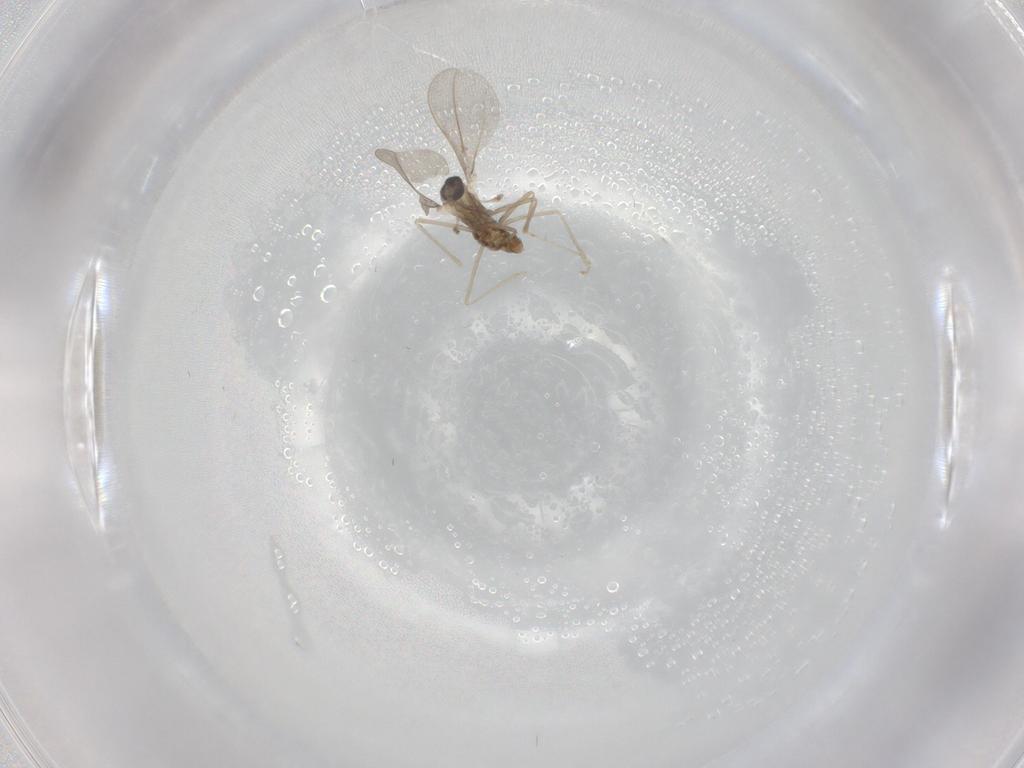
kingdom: Animalia
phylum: Arthropoda
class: Insecta
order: Diptera
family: Cecidomyiidae
